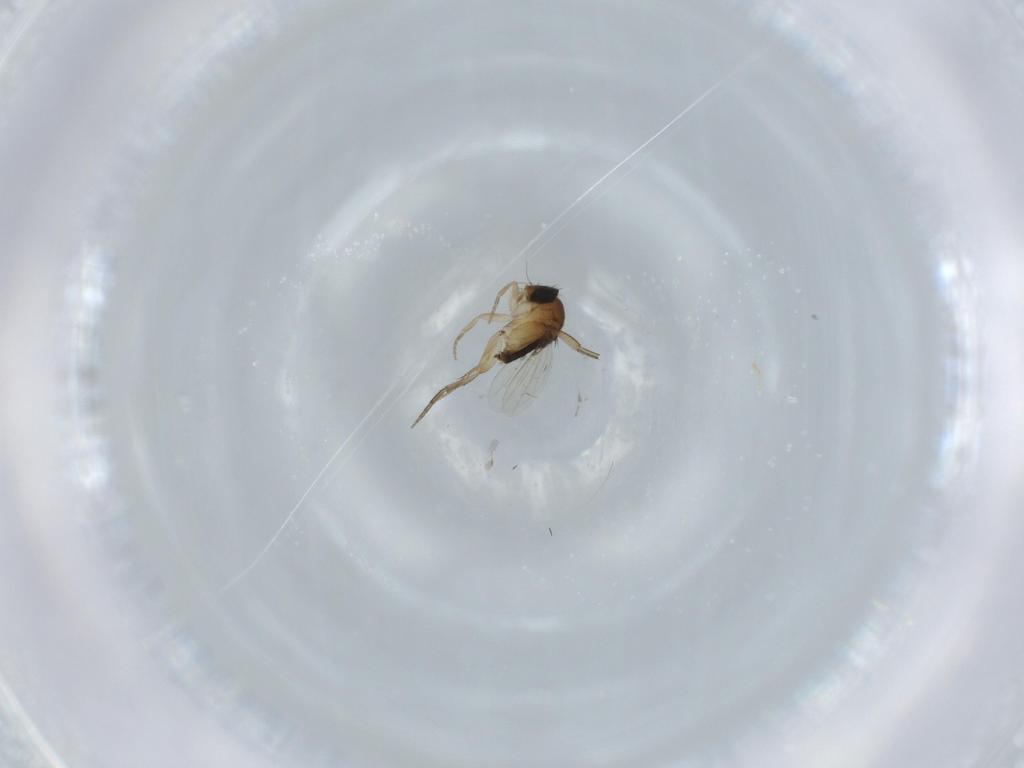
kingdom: Animalia
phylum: Arthropoda
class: Insecta
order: Diptera
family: Phoridae
